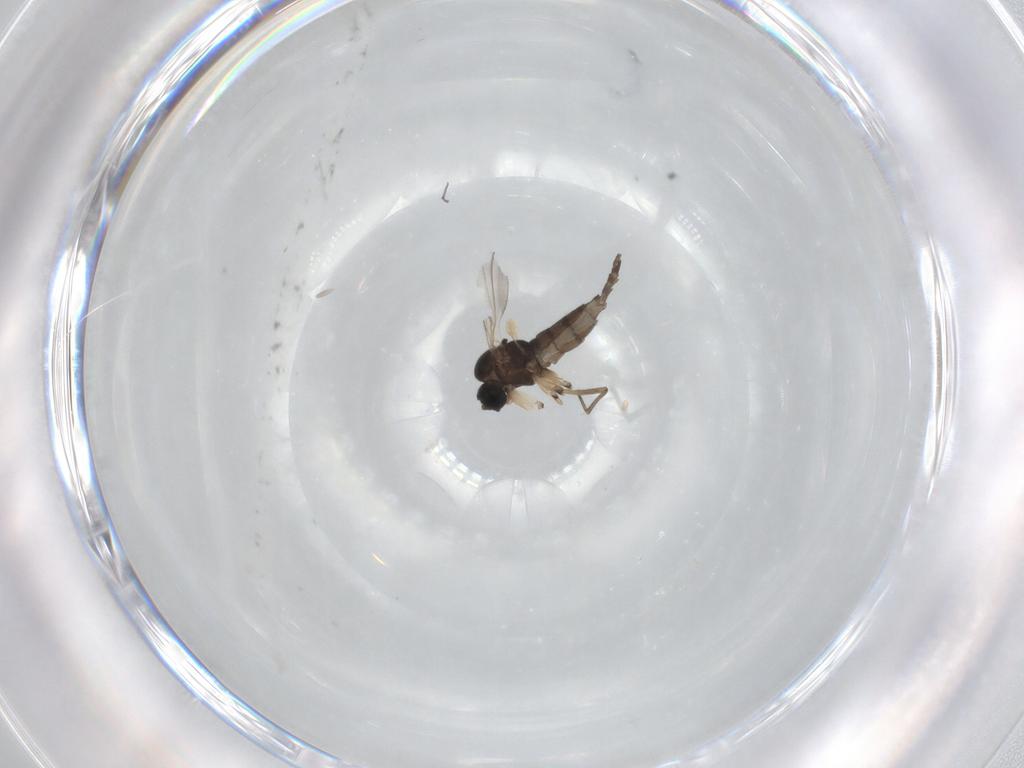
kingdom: Animalia
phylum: Arthropoda
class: Insecta
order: Diptera
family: Sciaridae
